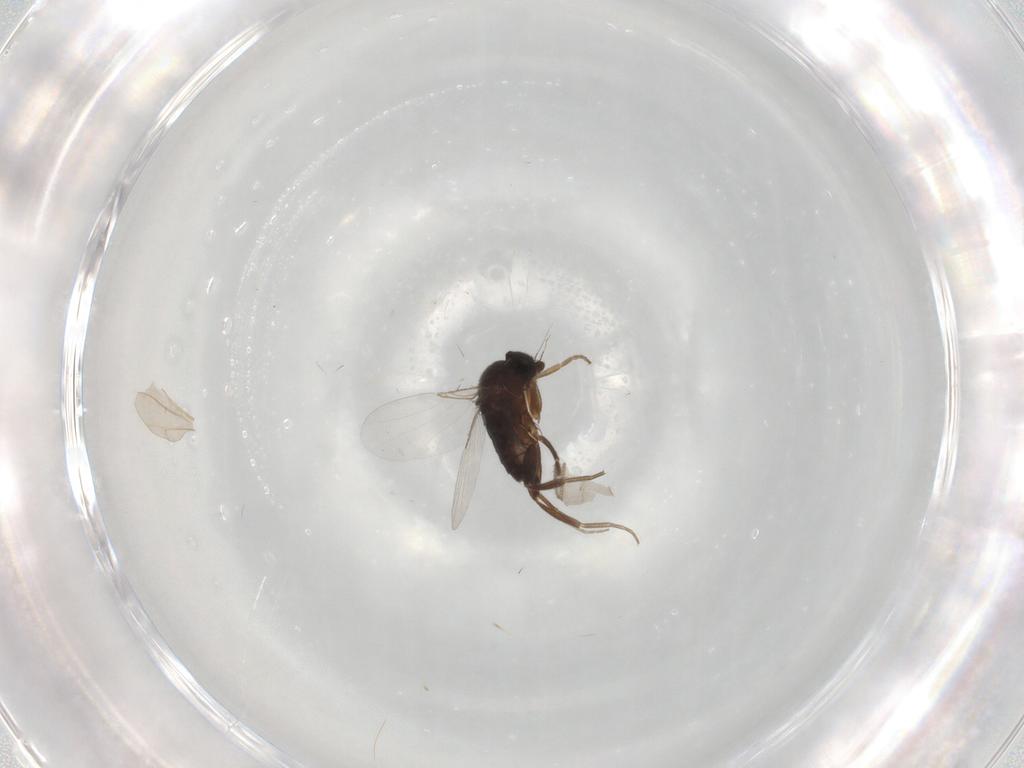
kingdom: Animalia
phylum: Arthropoda
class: Insecta
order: Diptera
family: Phoridae
